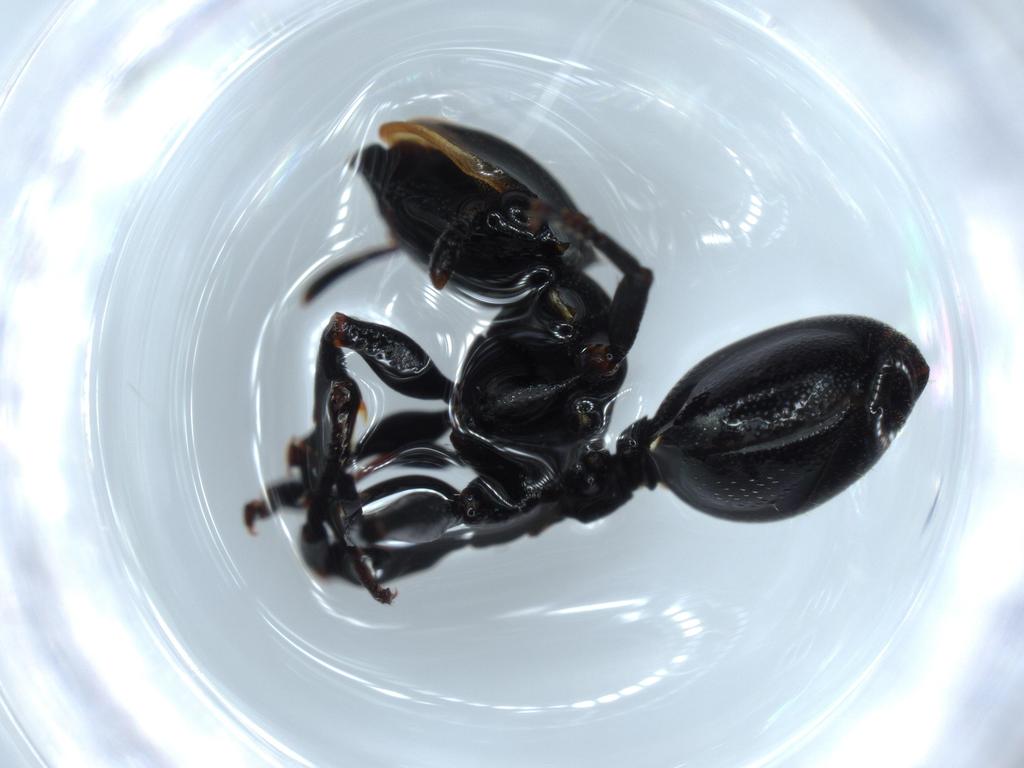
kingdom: Animalia
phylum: Arthropoda
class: Insecta
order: Hymenoptera
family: Formicidae
